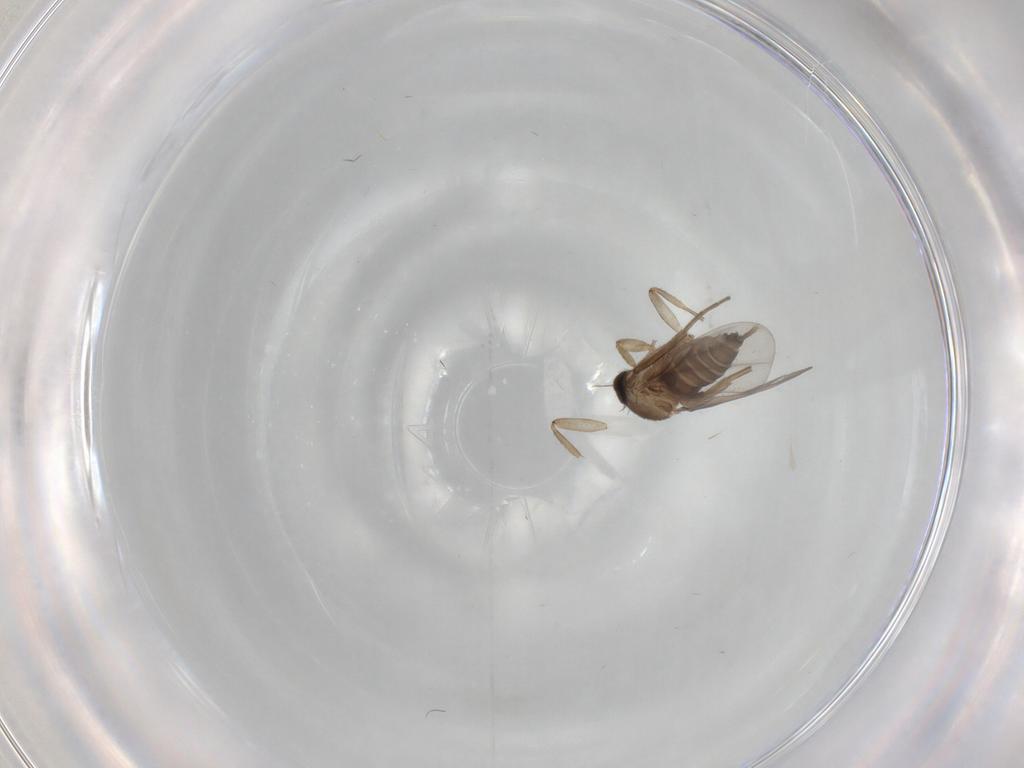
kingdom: Animalia
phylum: Arthropoda
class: Insecta
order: Diptera
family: Phoridae
